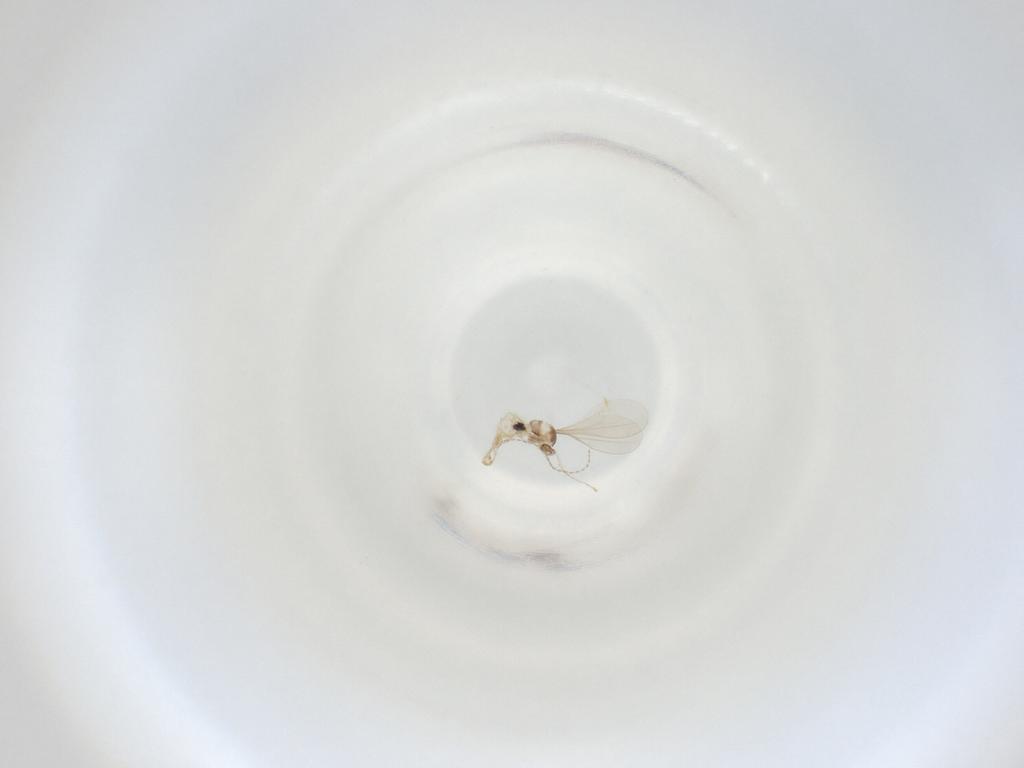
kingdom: Animalia
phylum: Arthropoda
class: Insecta
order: Diptera
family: Cecidomyiidae
